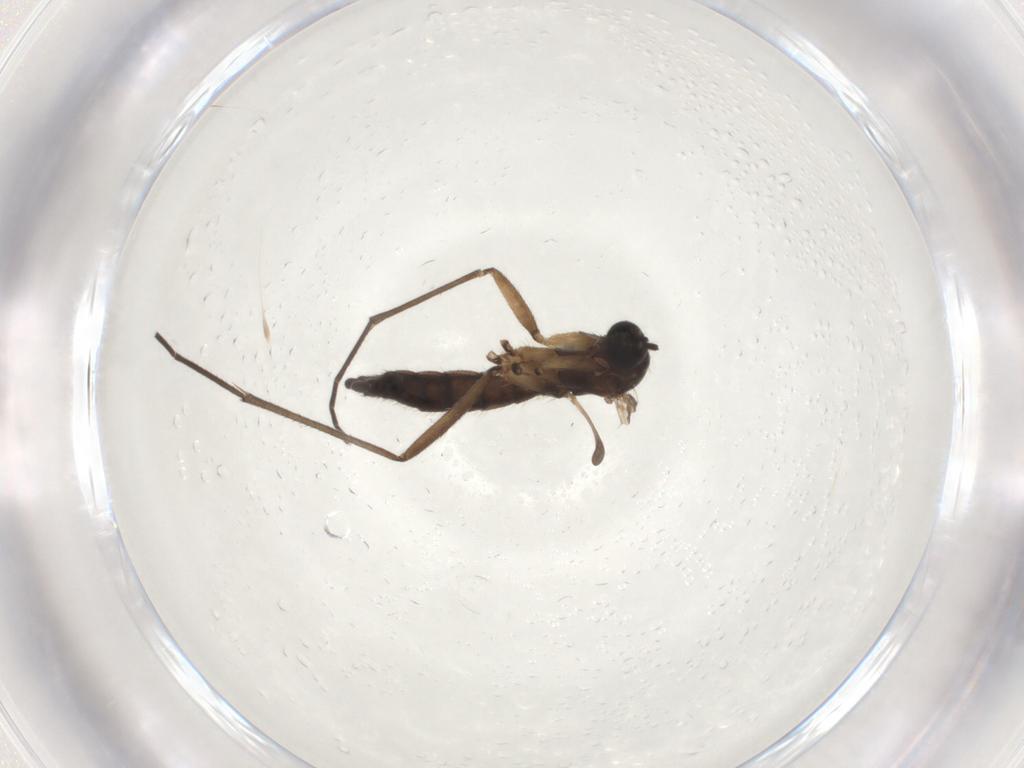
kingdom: Animalia
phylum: Arthropoda
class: Insecta
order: Diptera
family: Sciaridae
